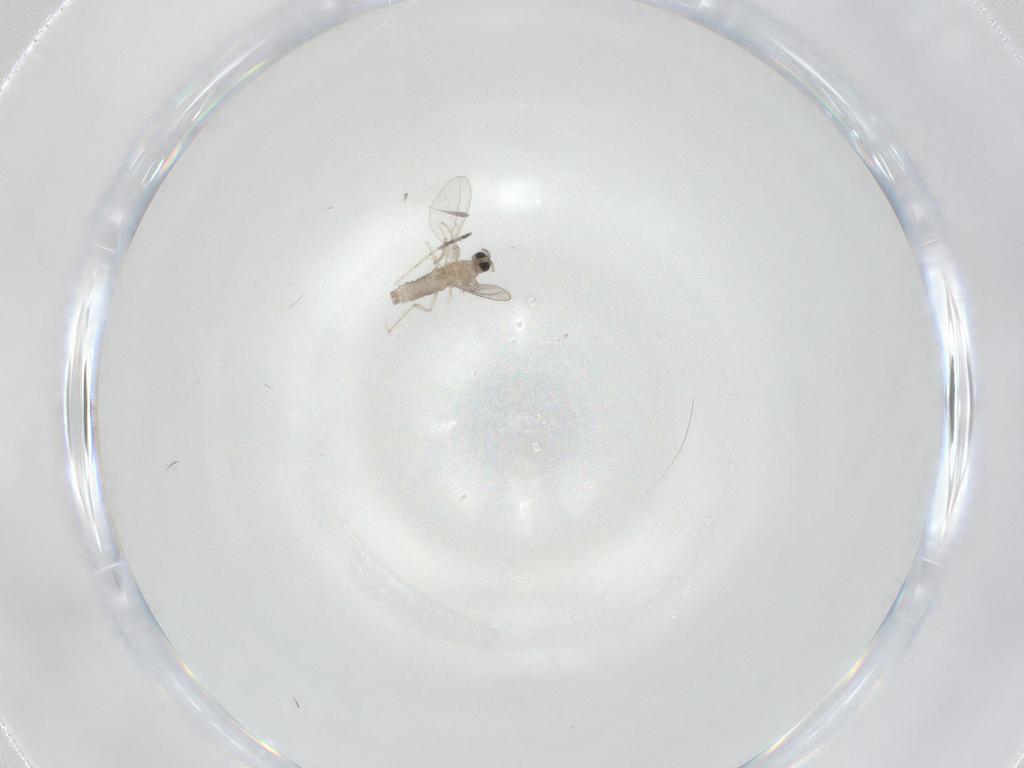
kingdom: Animalia
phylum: Arthropoda
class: Insecta
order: Diptera
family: Cecidomyiidae
